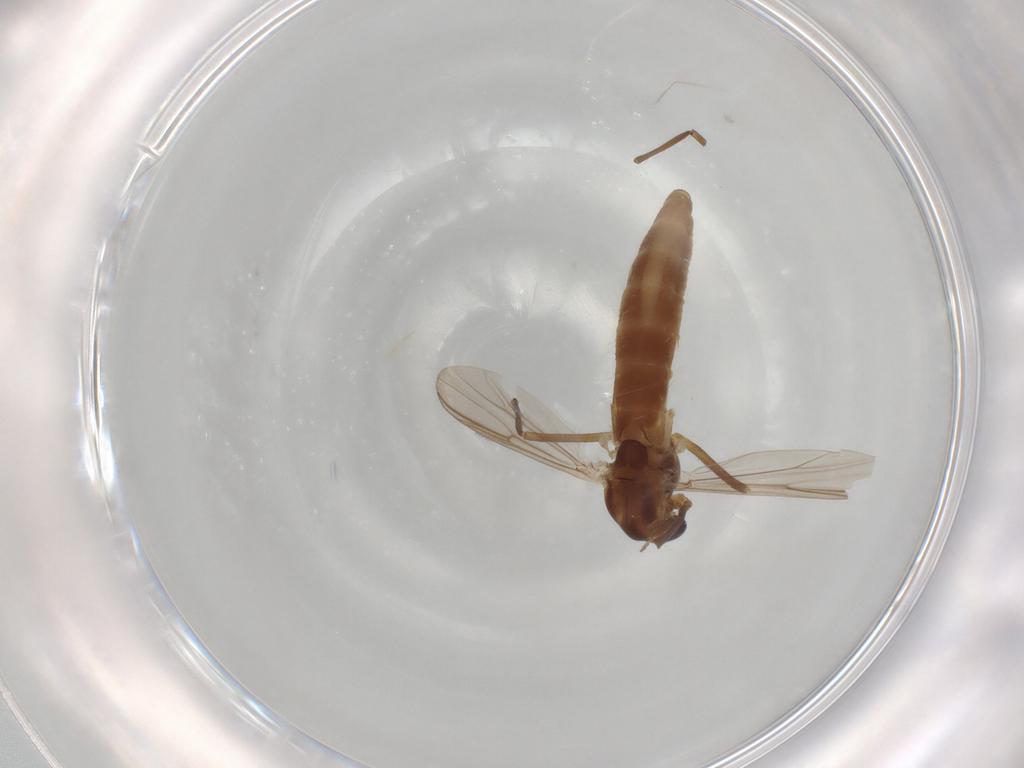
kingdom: Animalia
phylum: Arthropoda
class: Insecta
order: Diptera
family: Chironomidae
